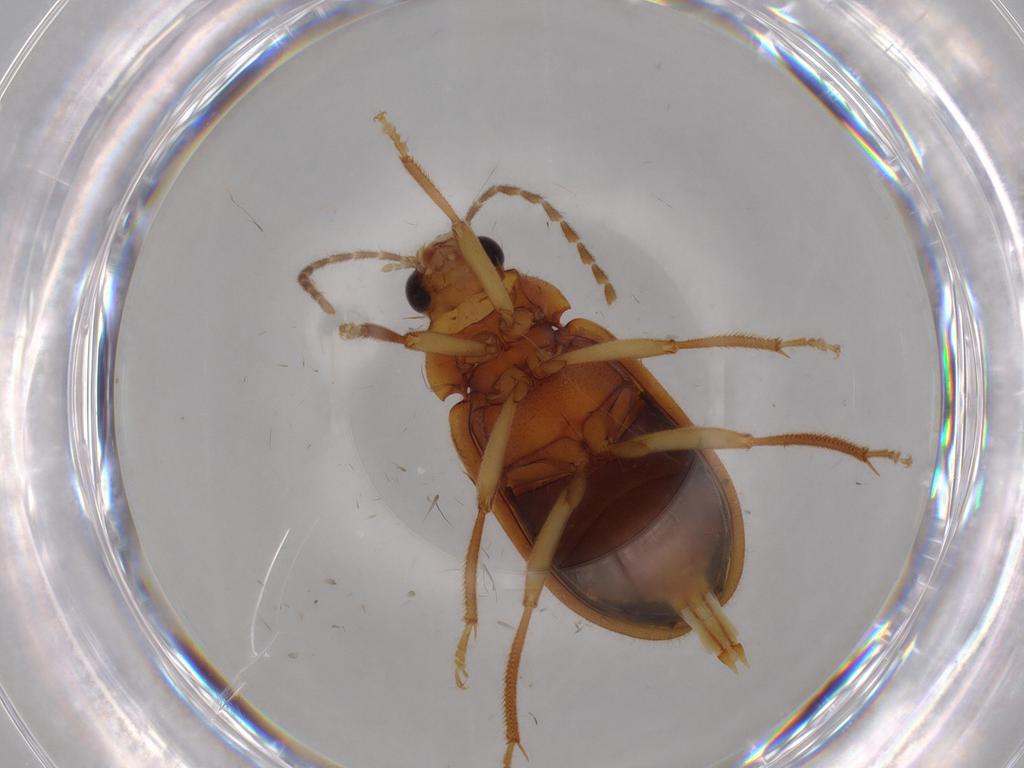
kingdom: Animalia
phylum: Arthropoda
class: Insecta
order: Coleoptera
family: Ptilodactylidae
